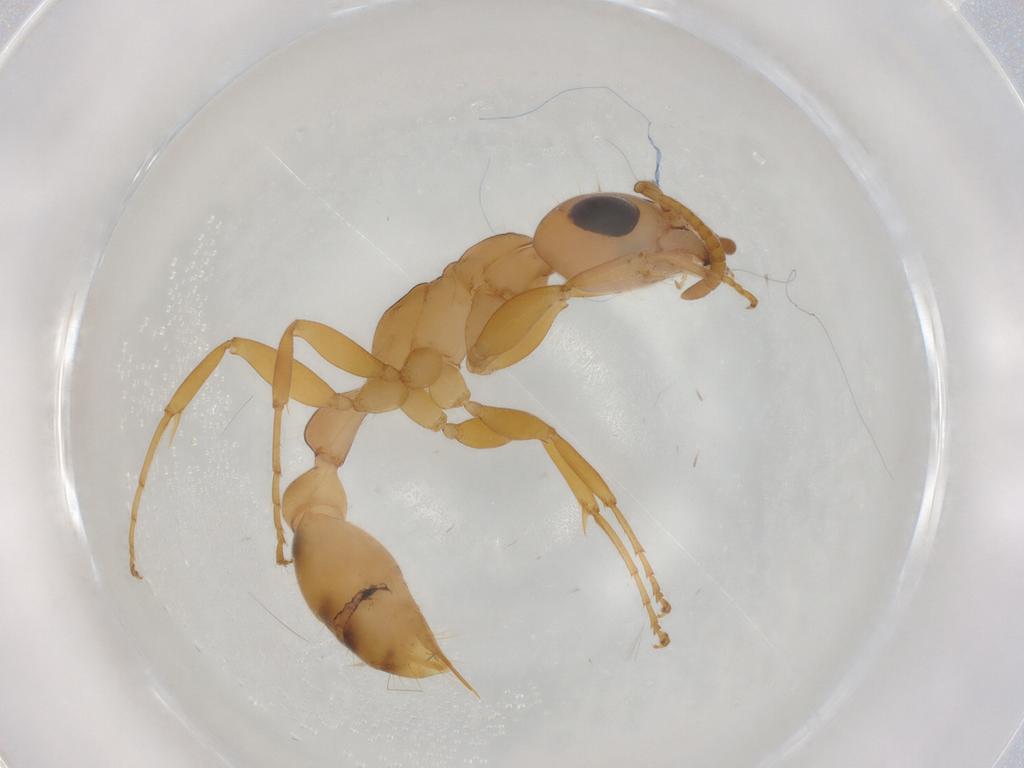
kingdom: Animalia
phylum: Arthropoda
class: Insecta
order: Hymenoptera
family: Formicidae
